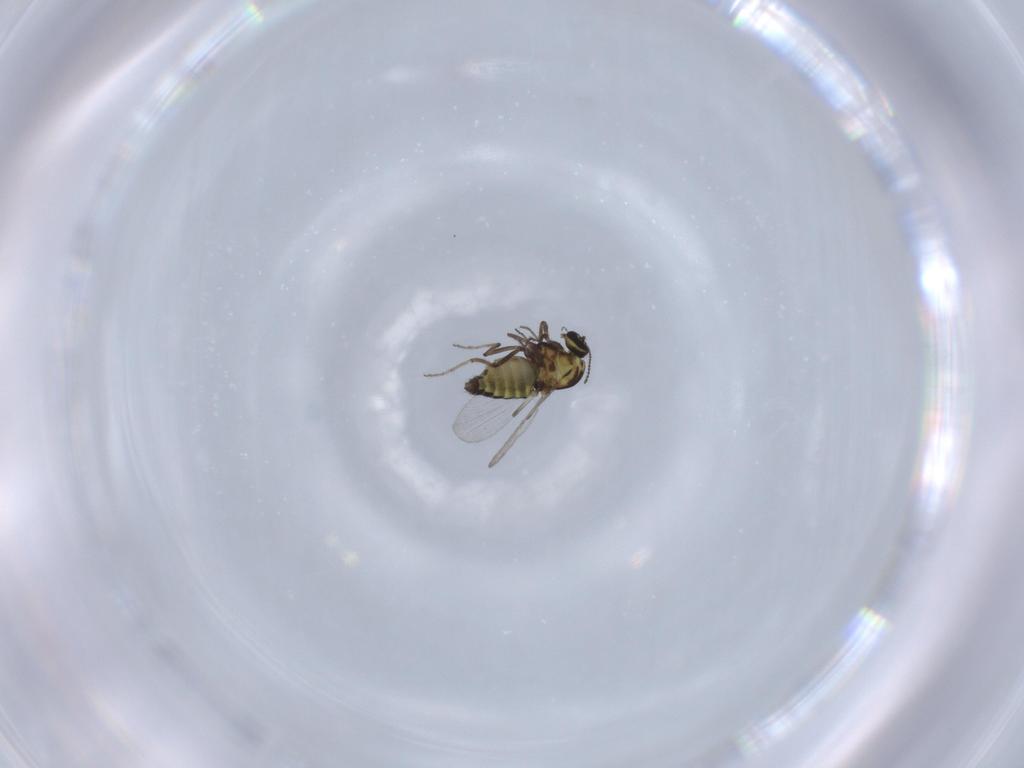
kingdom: Animalia
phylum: Arthropoda
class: Insecta
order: Diptera
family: Ceratopogonidae
